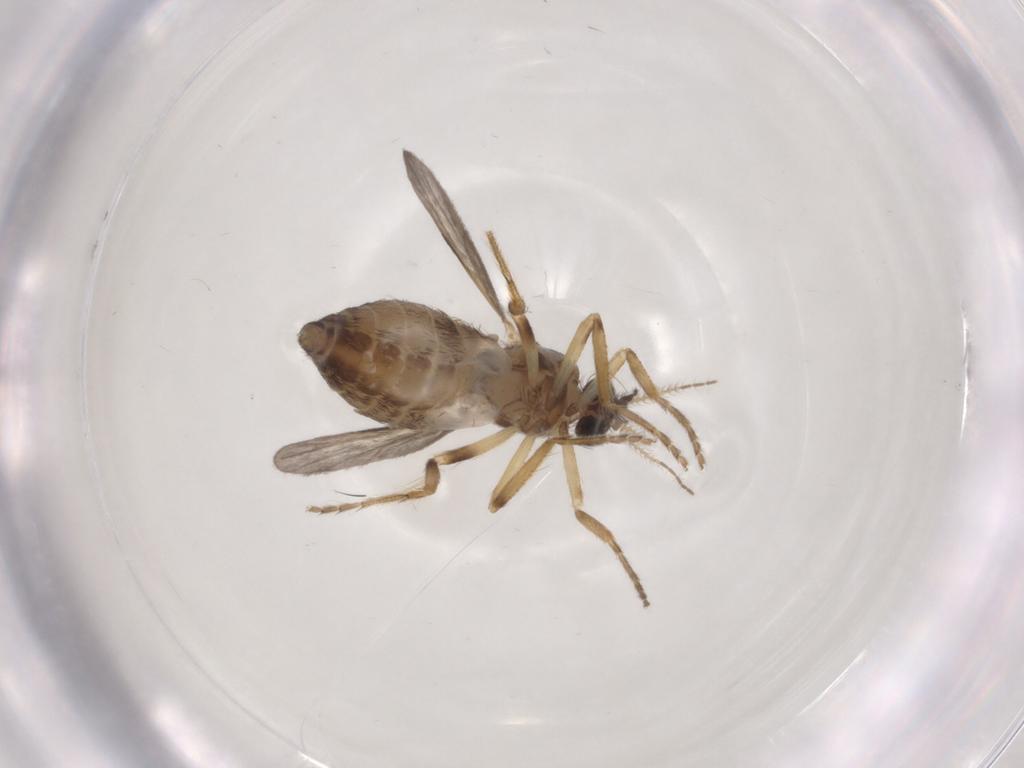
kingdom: Animalia
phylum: Arthropoda
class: Insecta
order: Diptera
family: Ceratopogonidae
